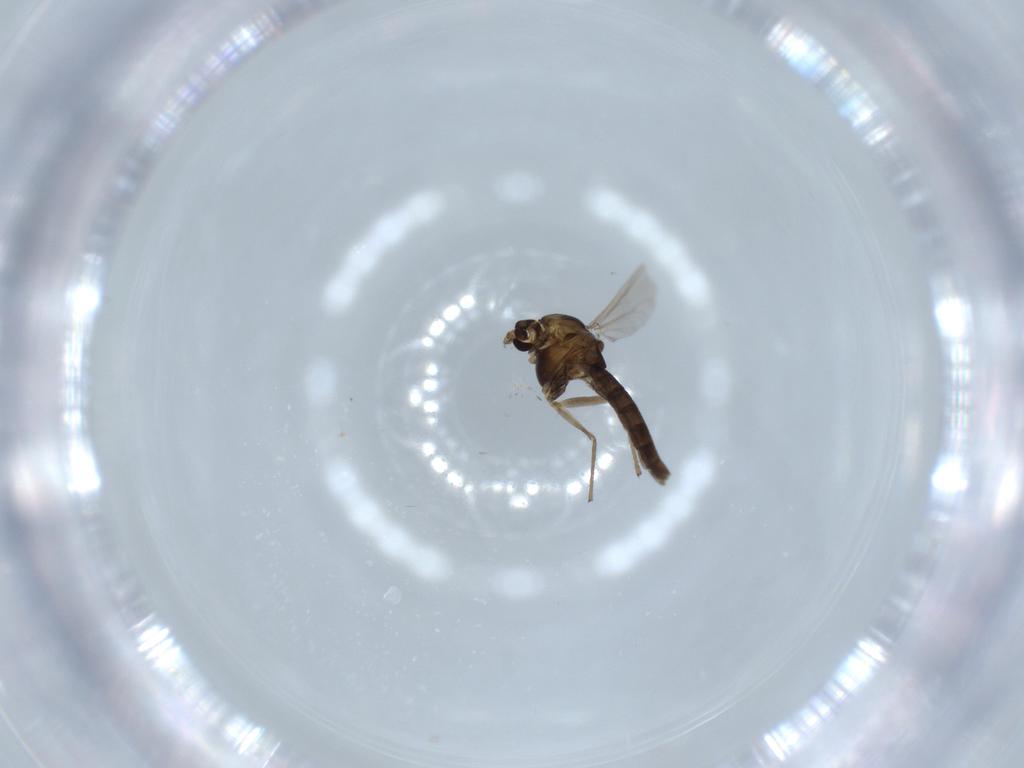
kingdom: Animalia
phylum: Arthropoda
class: Insecta
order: Diptera
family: Chironomidae
